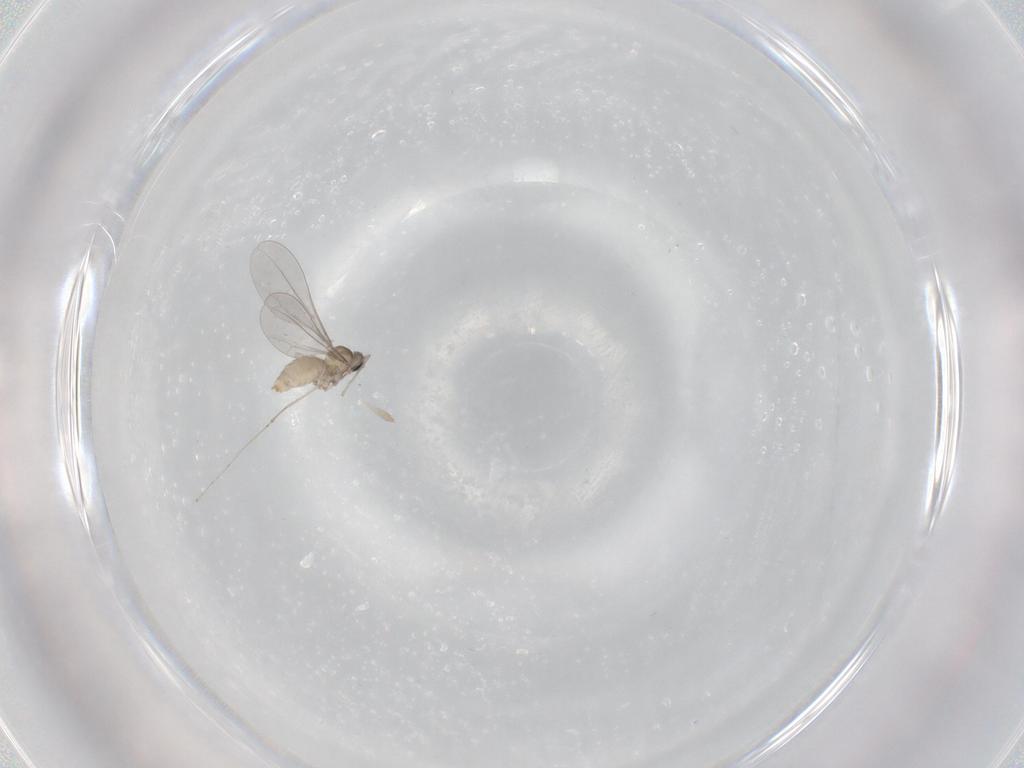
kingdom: Animalia
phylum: Arthropoda
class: Insecta
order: Diptera
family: Cecidomyiidae
